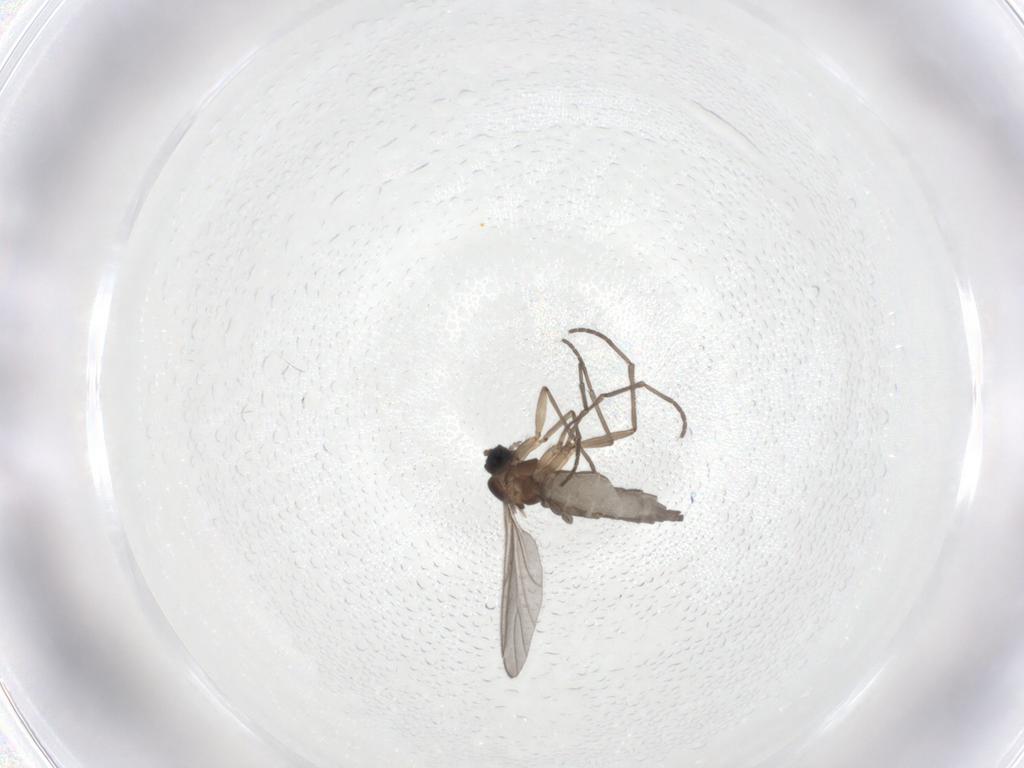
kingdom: Animalia
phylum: Arthropoda
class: Insecta
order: Diptera
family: Sciaridae
